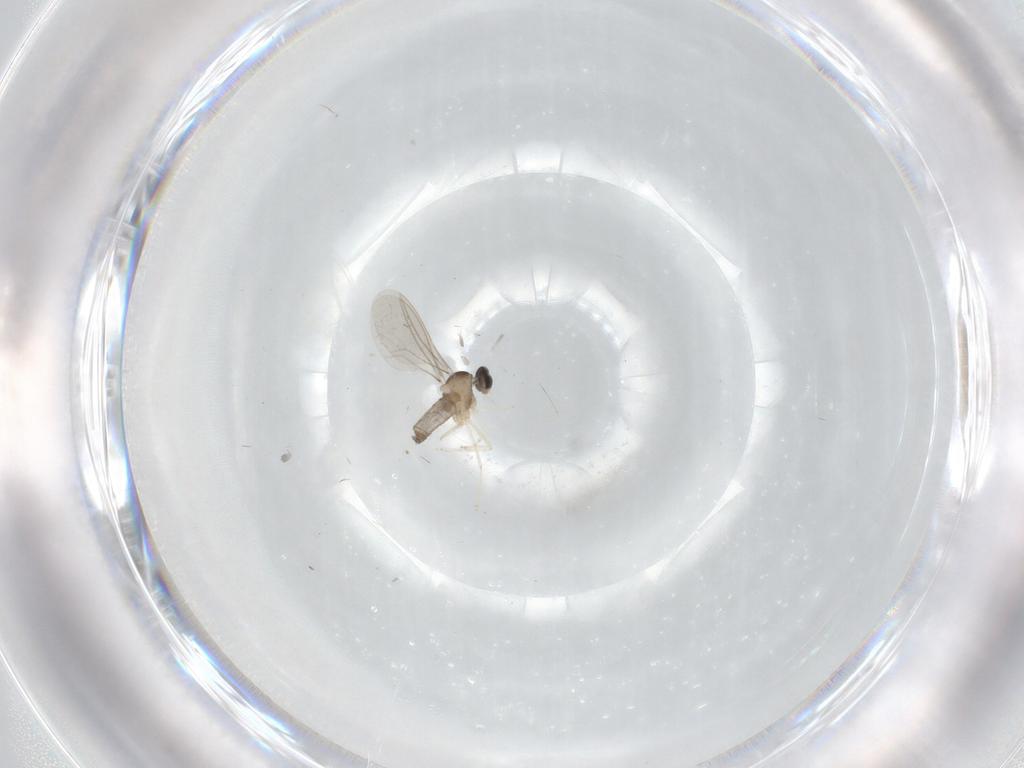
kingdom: Animalia
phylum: Arthropoda
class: Insecta
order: Diptera
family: Cecidomyiidae
